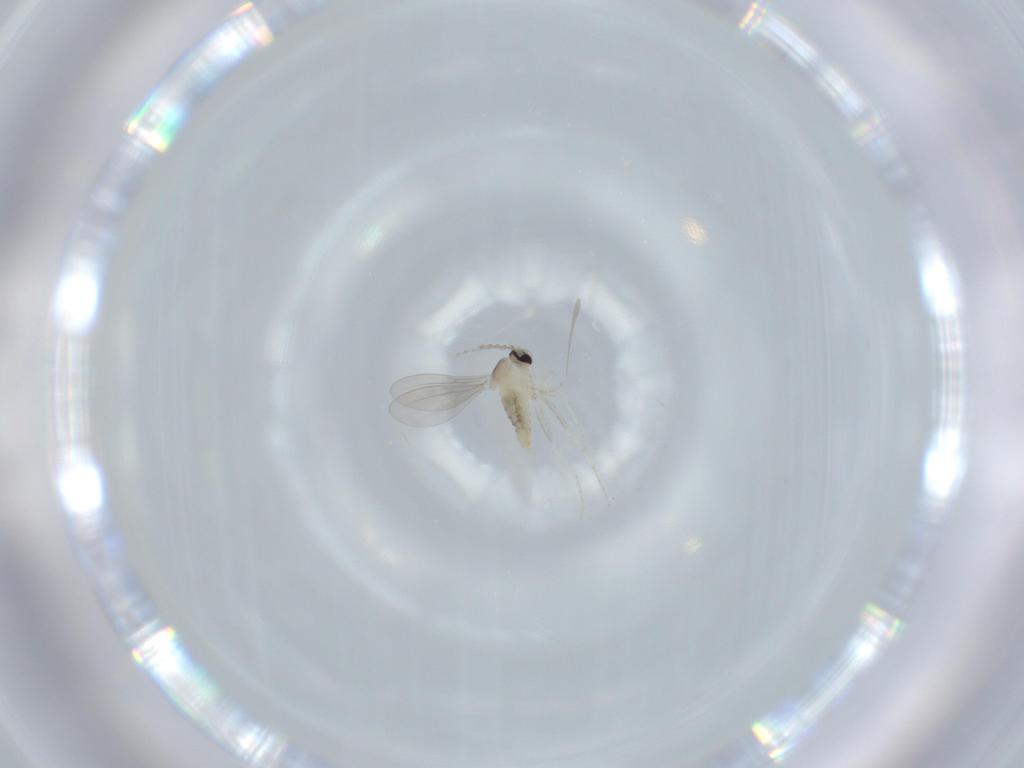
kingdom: Animalia
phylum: Arthropoda
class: Insecta
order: Diptera
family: Cecidomyiidae
